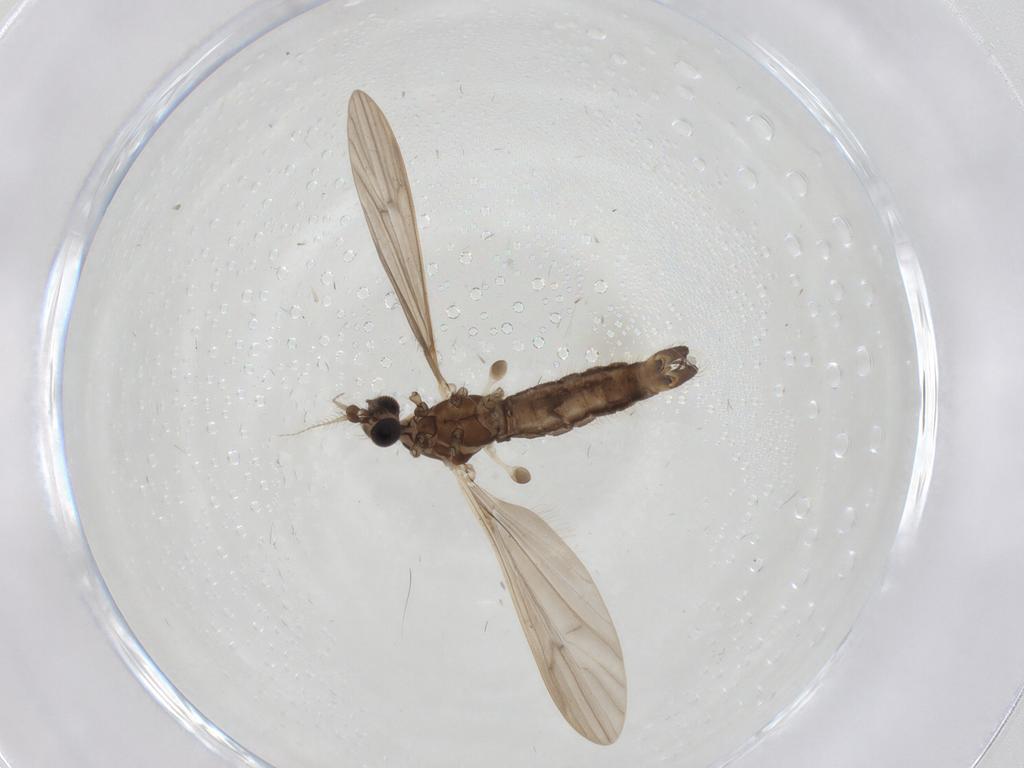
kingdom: Animalia
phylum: Arthropoda
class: Insecta
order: Diptera
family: Limoniidae
